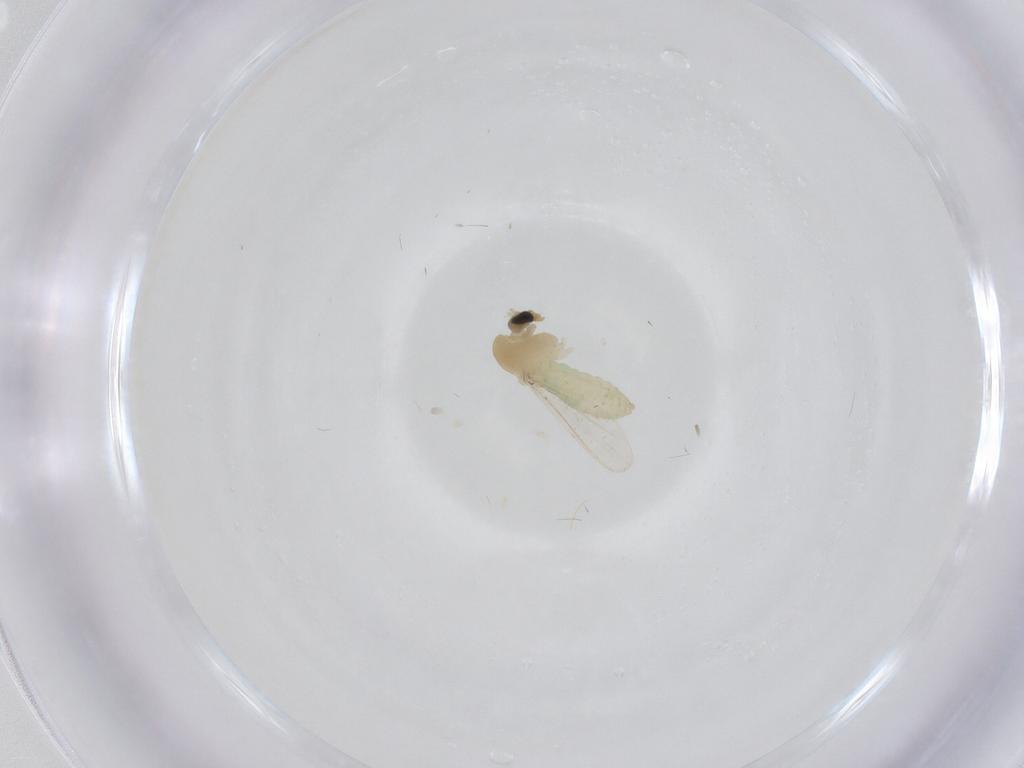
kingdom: Animalia
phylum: Arthropoda
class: Insecta
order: Diptera
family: Chironomidae
